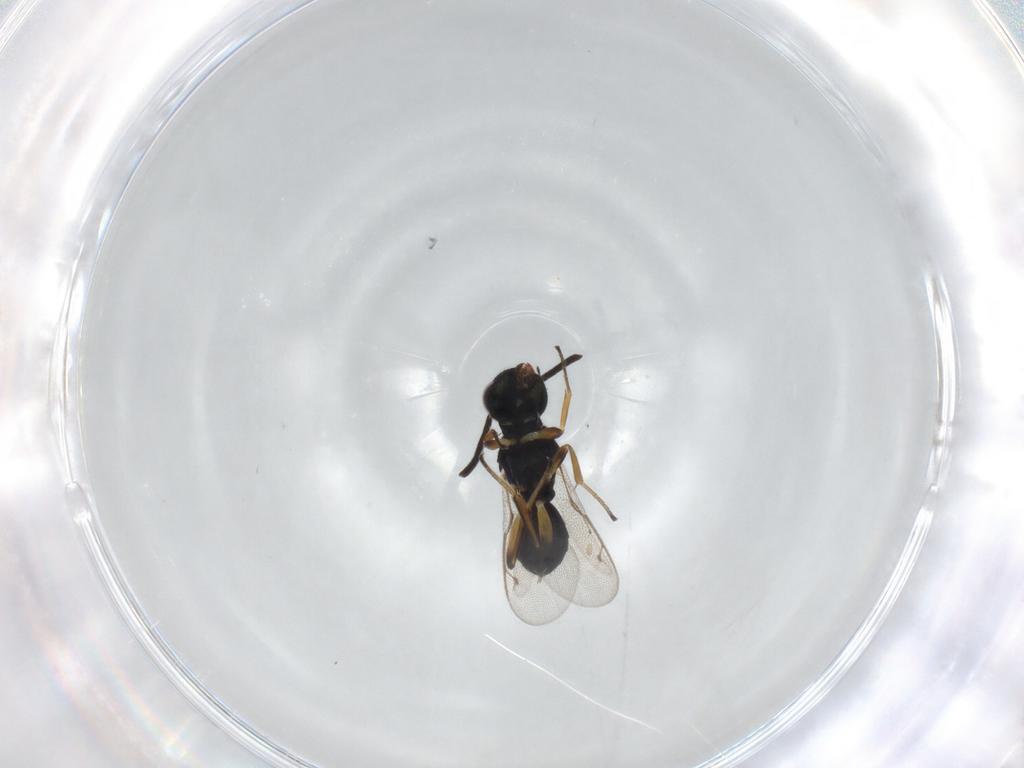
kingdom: Animalia
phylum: Arthropoda
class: Insecta
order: Hymenoptera
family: Eupelmidae
